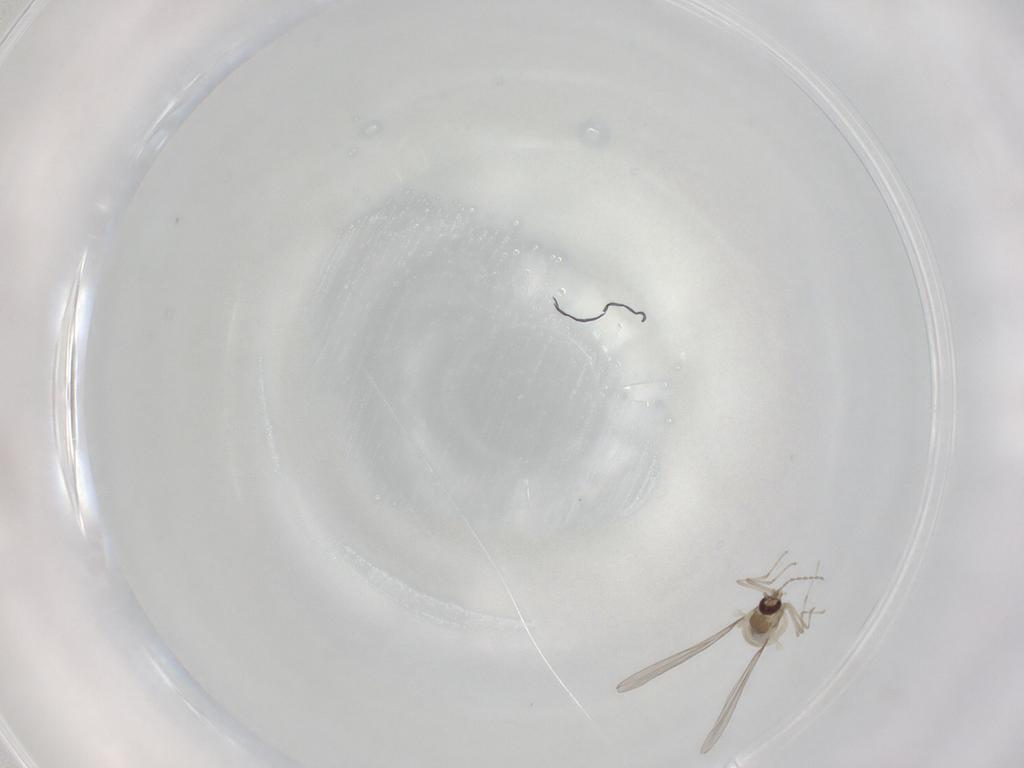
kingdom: Animalia
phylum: Arthropoda
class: Insecta
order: Diptera
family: Cecidomyiidae
